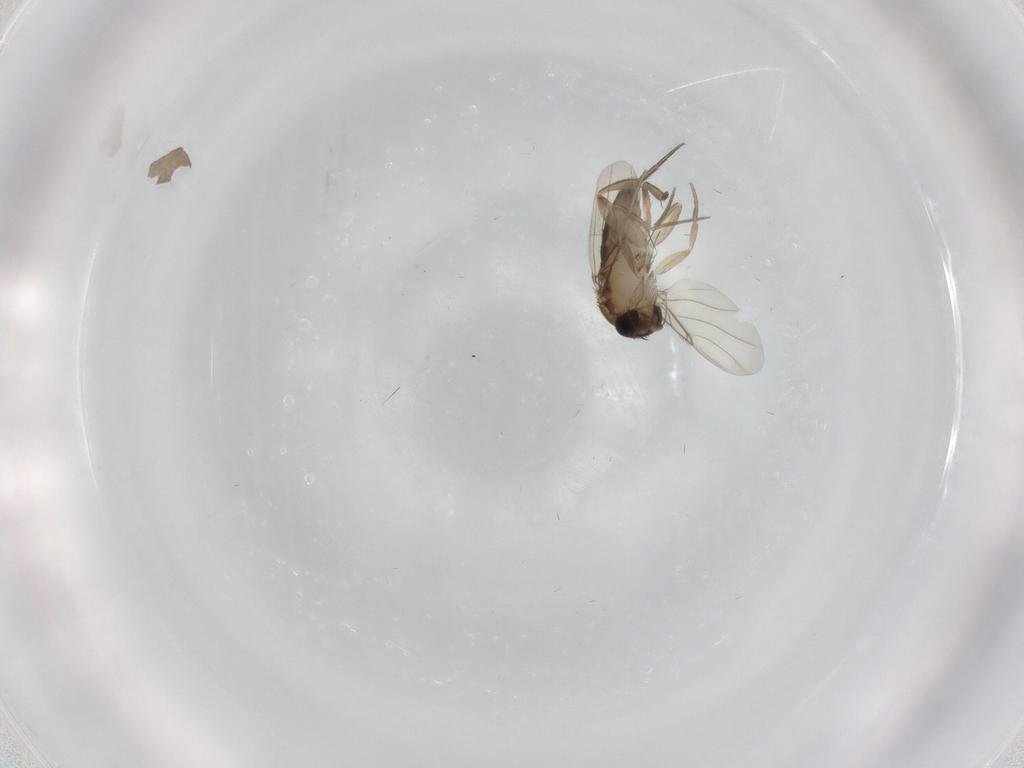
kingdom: Animalia
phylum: Arthropoda
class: Insecta
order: Diptera
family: Phoridae
